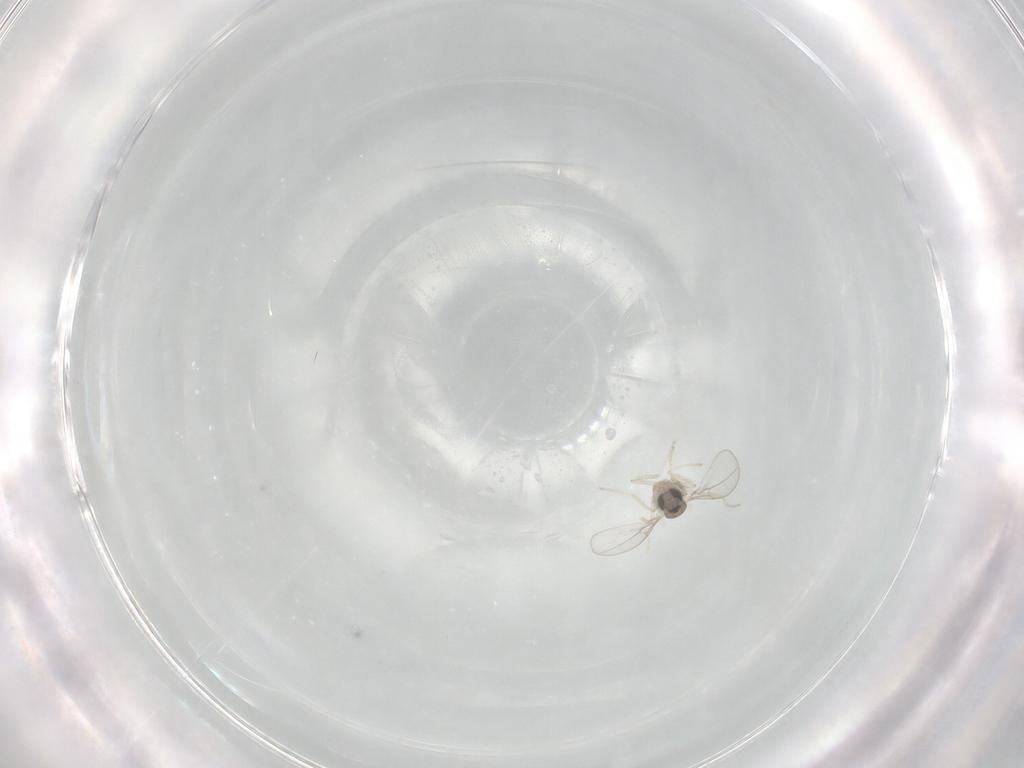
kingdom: Animalia
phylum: Arthropoda
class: Insecta
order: Diptera
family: Cecidomyiidae
